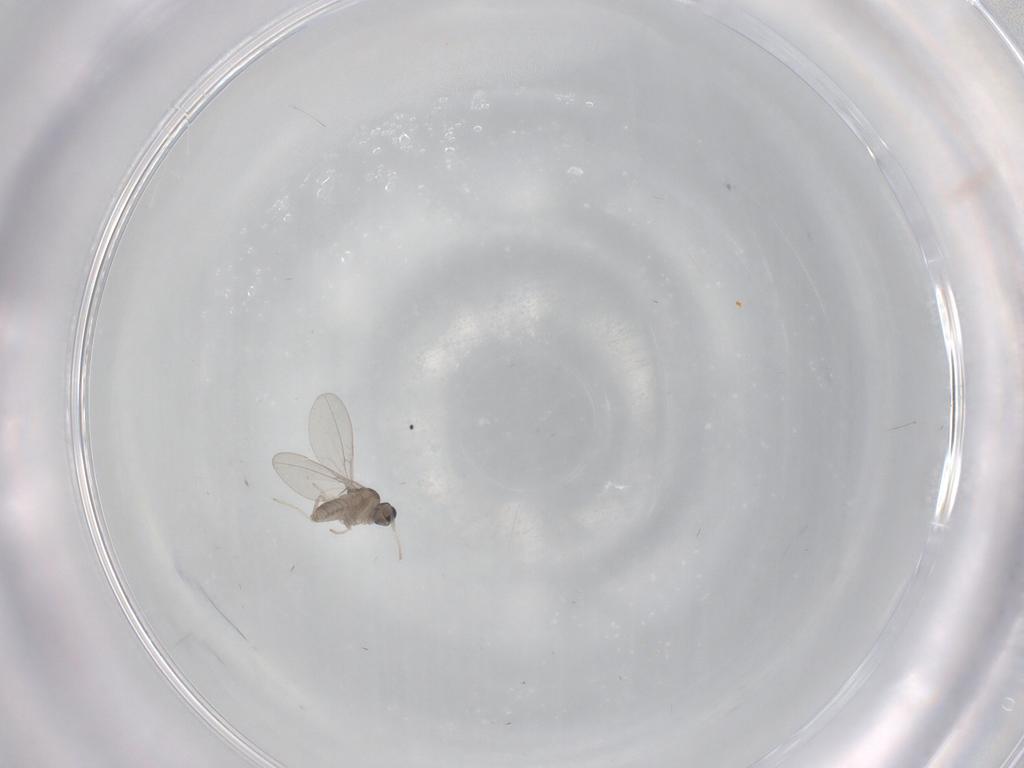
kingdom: Animalia
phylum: Arthropoda
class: Insecta
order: Diptera
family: Cecidomyiidae
